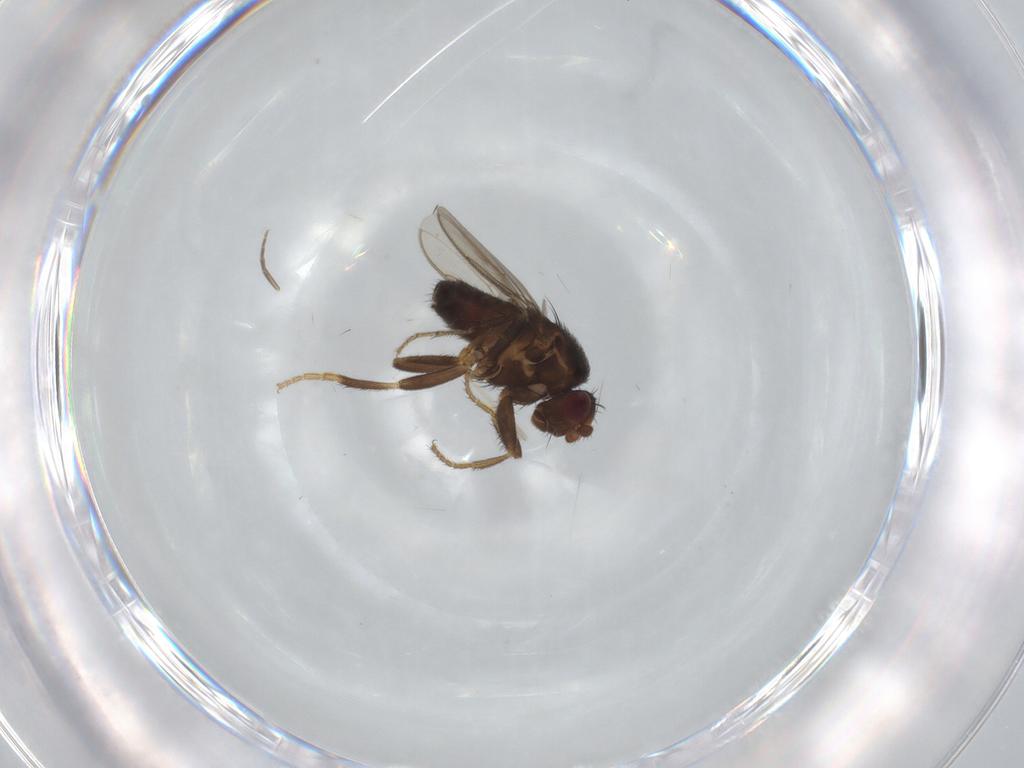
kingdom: Animalia
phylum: Arthropoda
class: Insecta
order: Diptera
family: Sphaeroceridae
